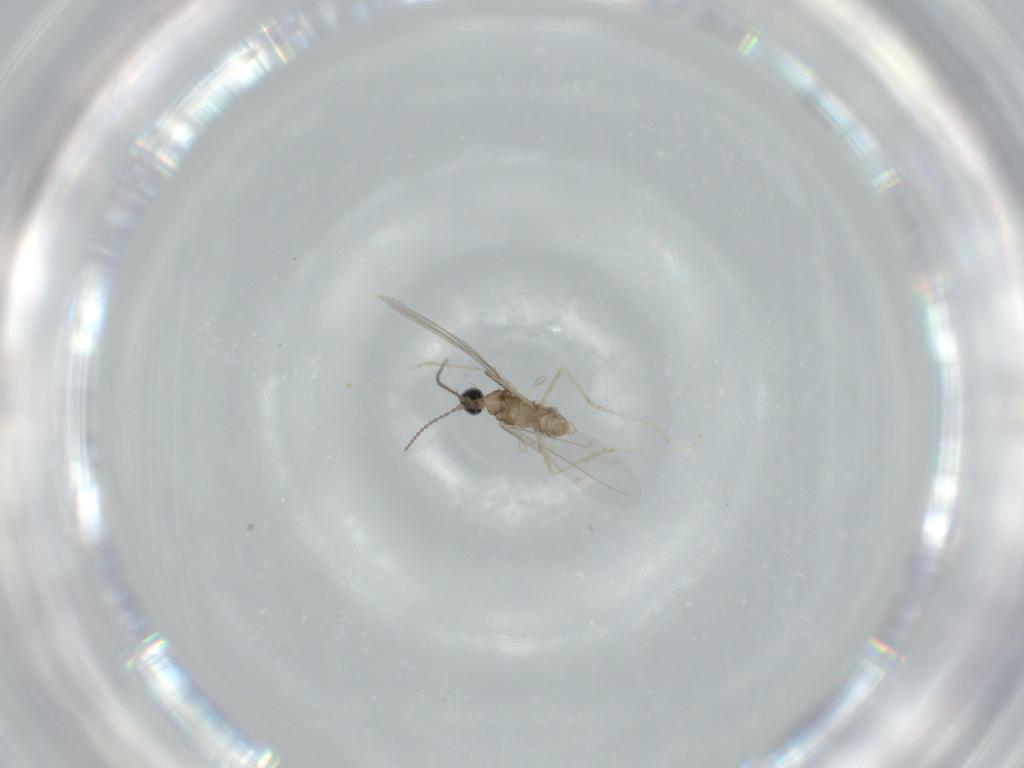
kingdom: Animalia
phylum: Arthropoda
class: Insecta
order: Diptera
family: Cecidomyiidae
